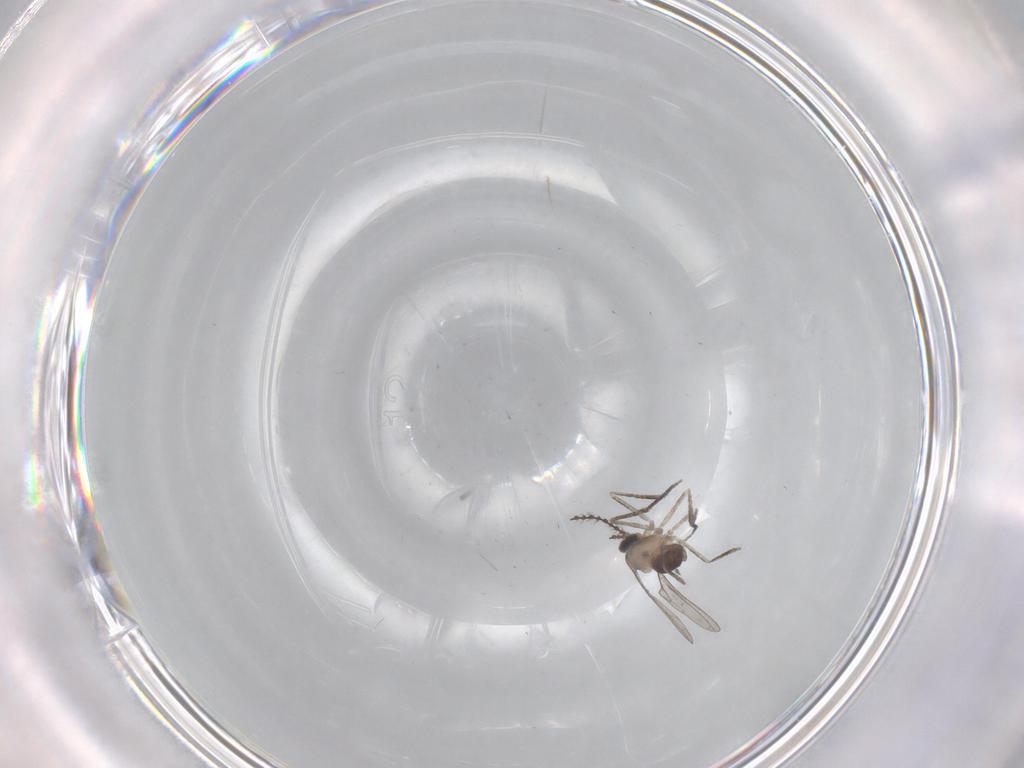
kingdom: Animalia
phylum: Arthropoda
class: Insecta
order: Diptera
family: Cecidomyiidae
